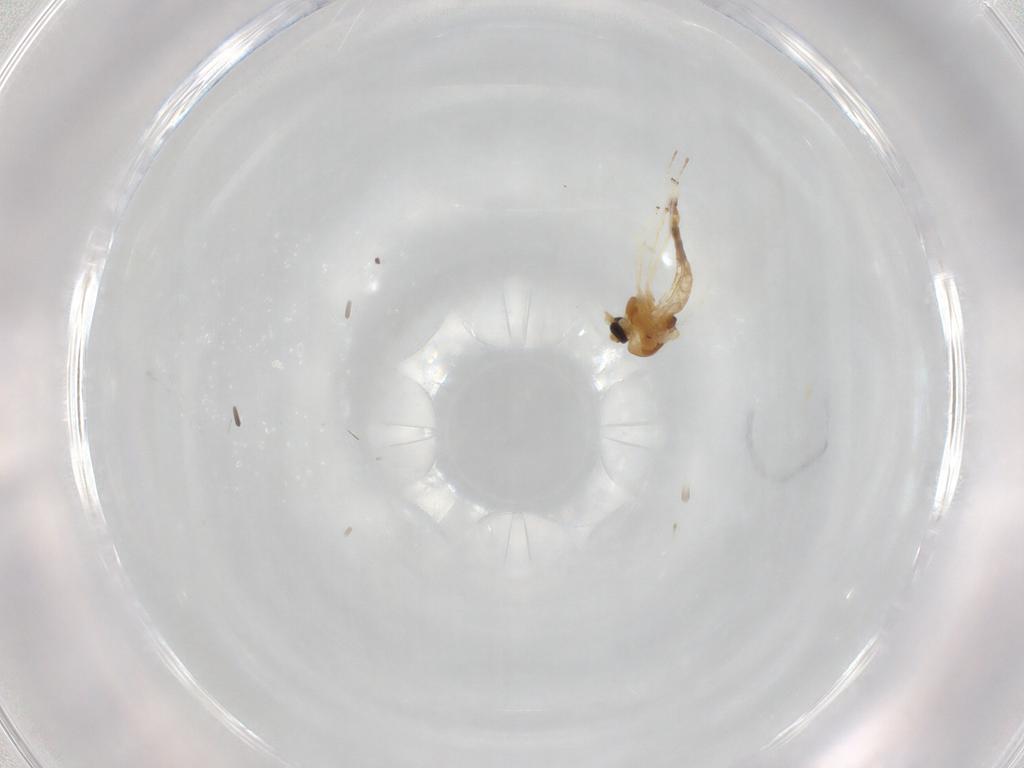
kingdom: Animalia
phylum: Arthropoda
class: Insecta
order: Diptera
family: Chironomidae
